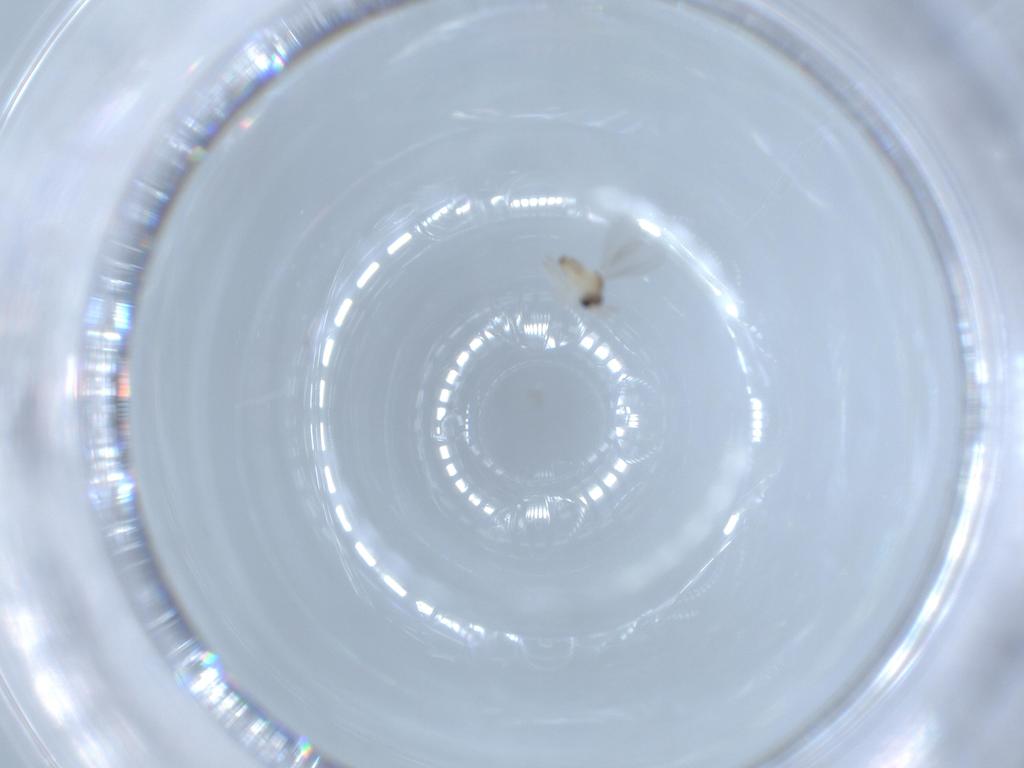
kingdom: Animalia
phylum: Arthropoda
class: Insecta
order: Diptera
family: Cecidomyiidae
